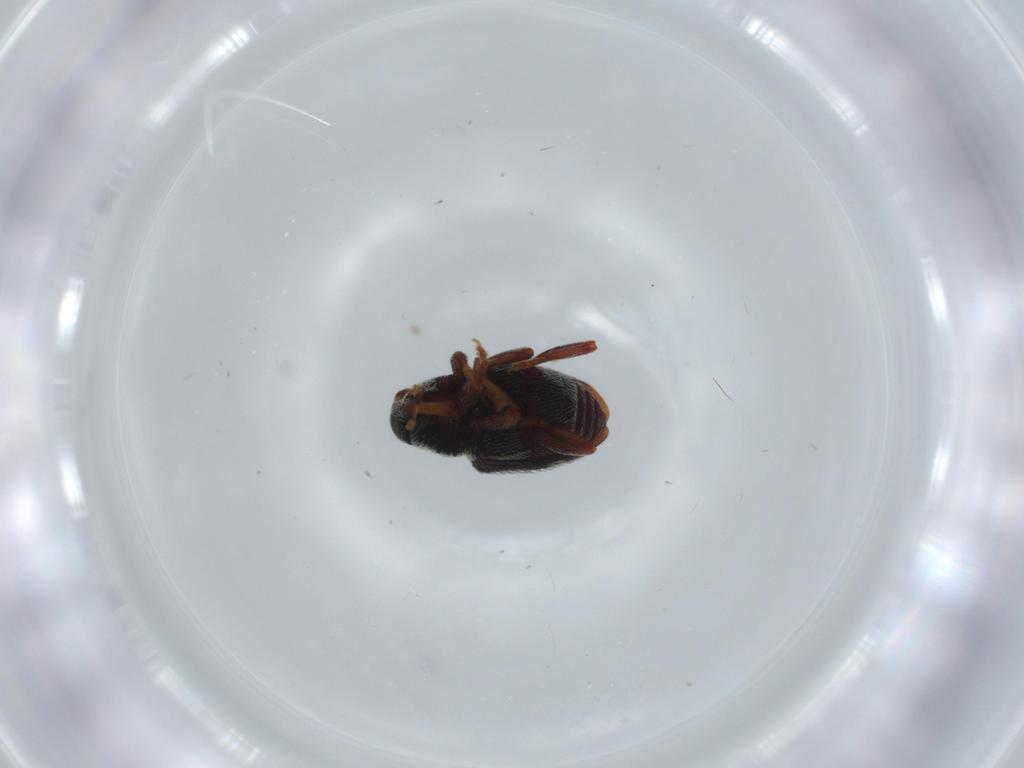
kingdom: Animalia
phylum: Arthropoda
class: Insecta
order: Coleoptera
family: Curculionidae
